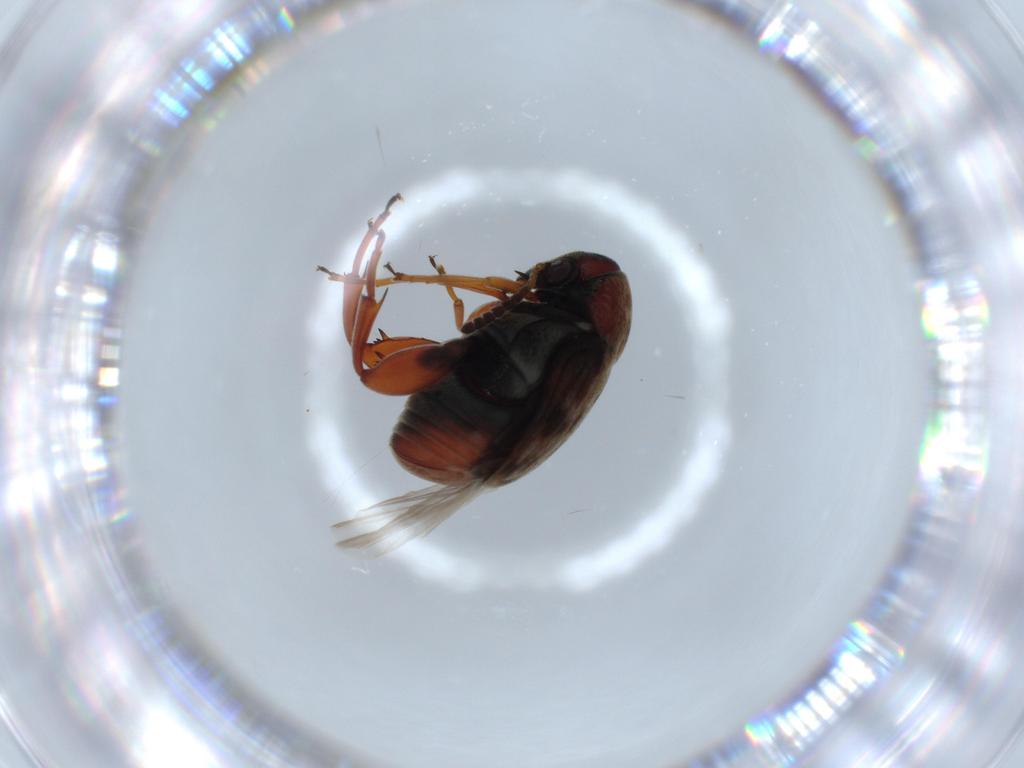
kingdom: Animalia
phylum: Arthropoda
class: Insecta
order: Coleoptera
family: Chrysomelidae
